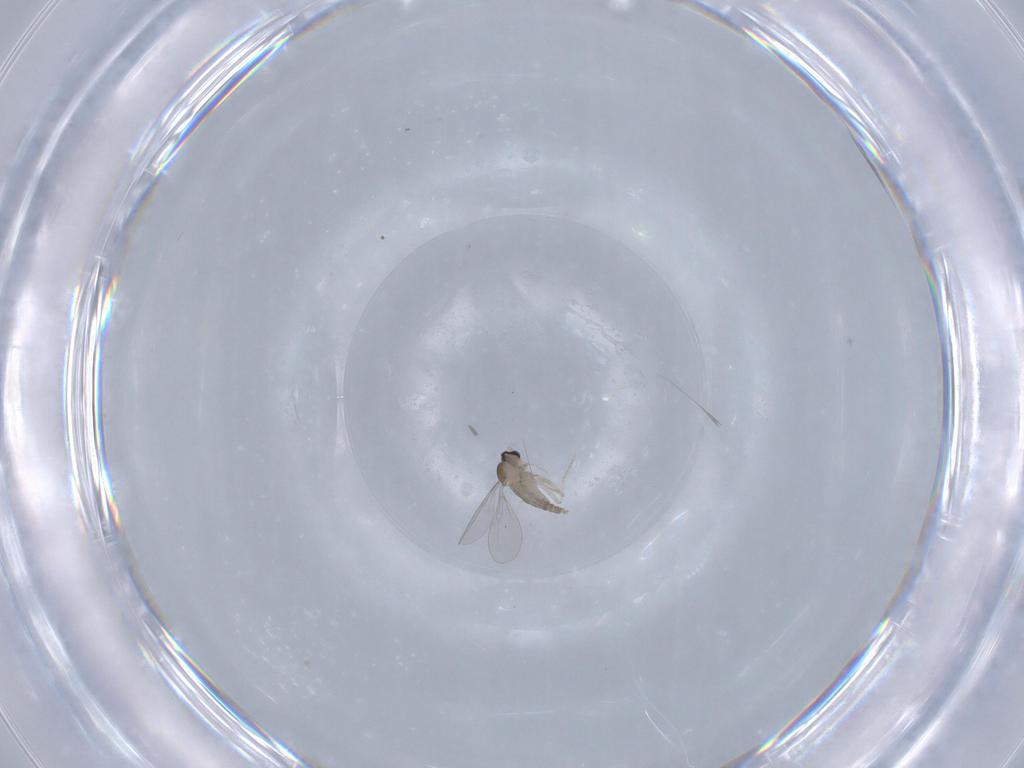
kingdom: Animalia
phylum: Arthropoda
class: Insecta
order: Diptera
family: Cecidomyiidae
